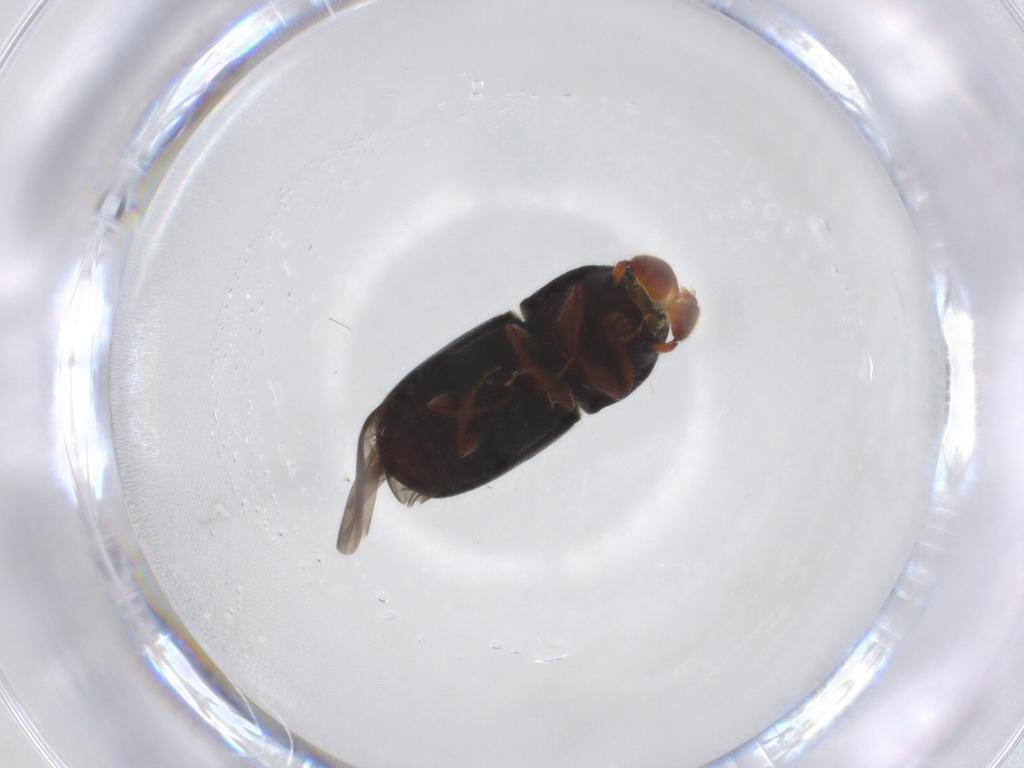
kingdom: Animalia
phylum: Arthropoda
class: Insecta
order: Coleoptera
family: Curculionidae
